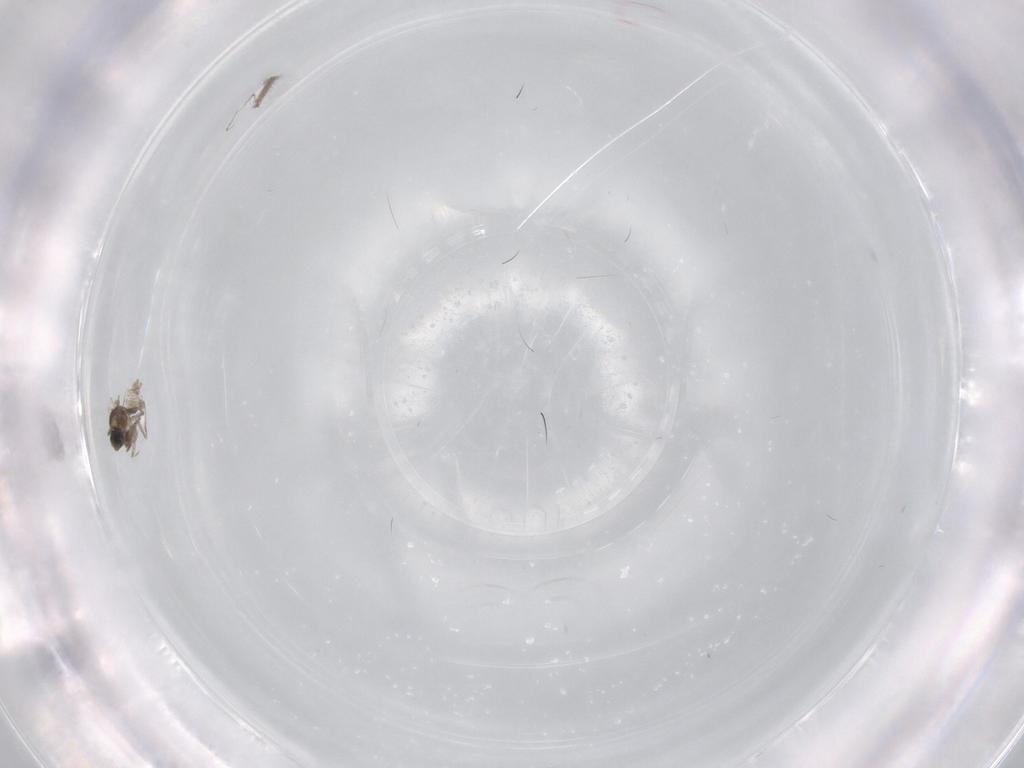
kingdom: Animalia
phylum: Arthropoda
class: Insecta
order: Diptera
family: Cecidomyiidae
